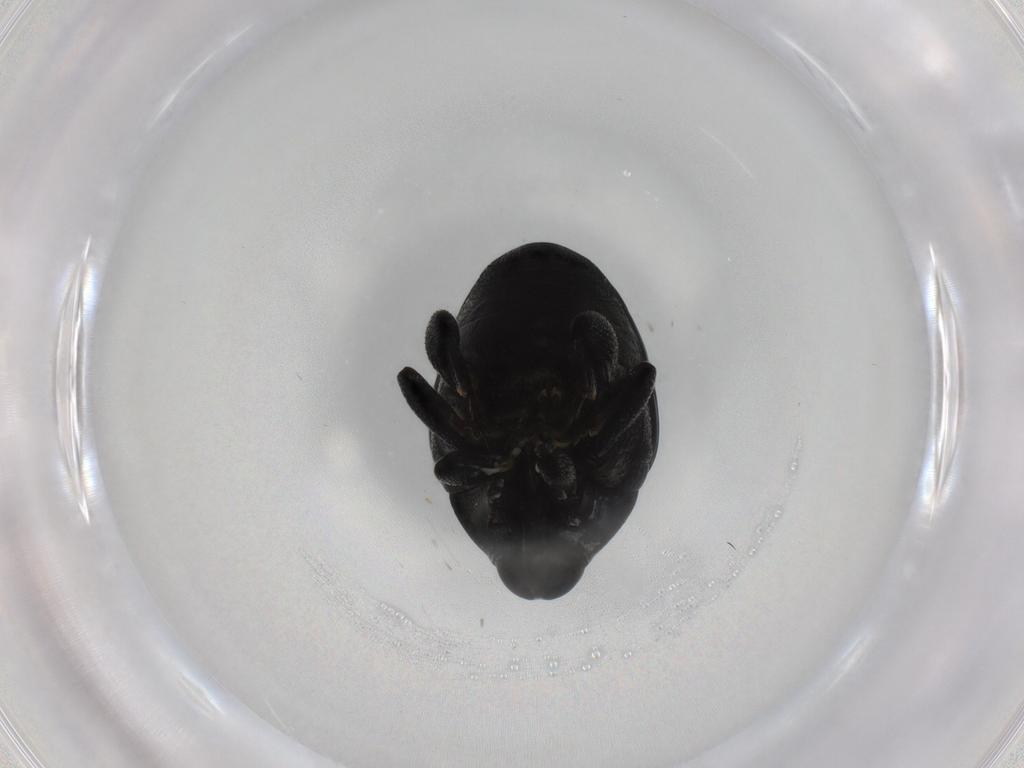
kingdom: Animalia
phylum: Arthropoda
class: Insecta
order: Coleoptera
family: Curculionidae
